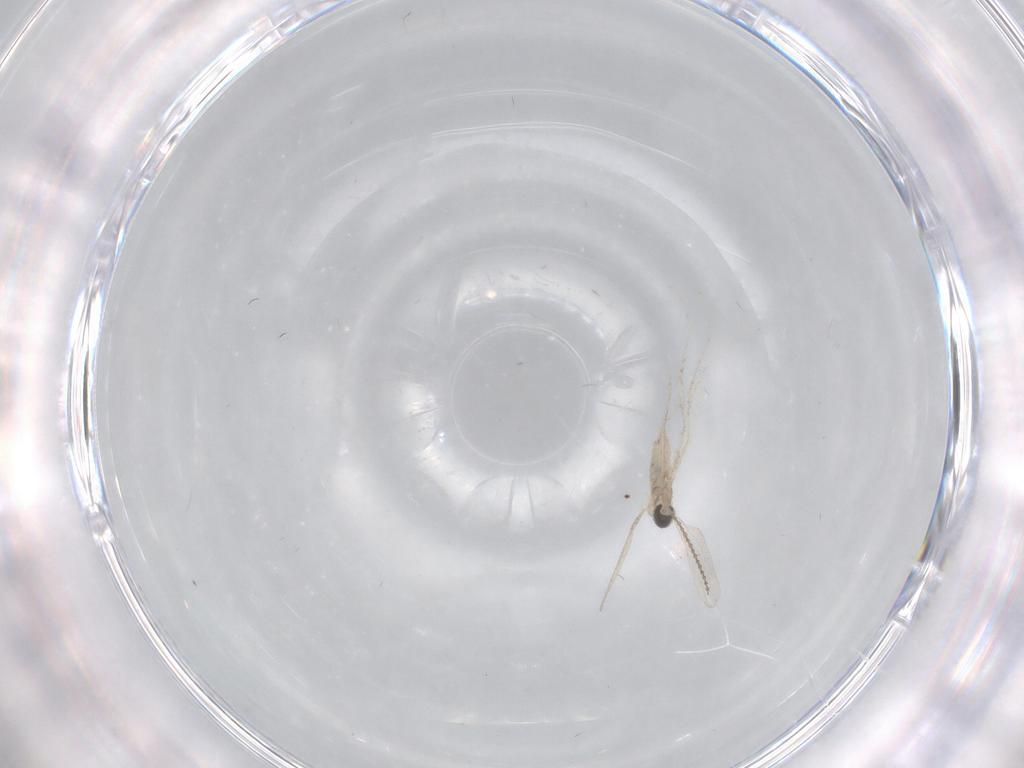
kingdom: Animalia
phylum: Arthropoda
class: Insecta
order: Diptera
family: Cecidomyiidae
